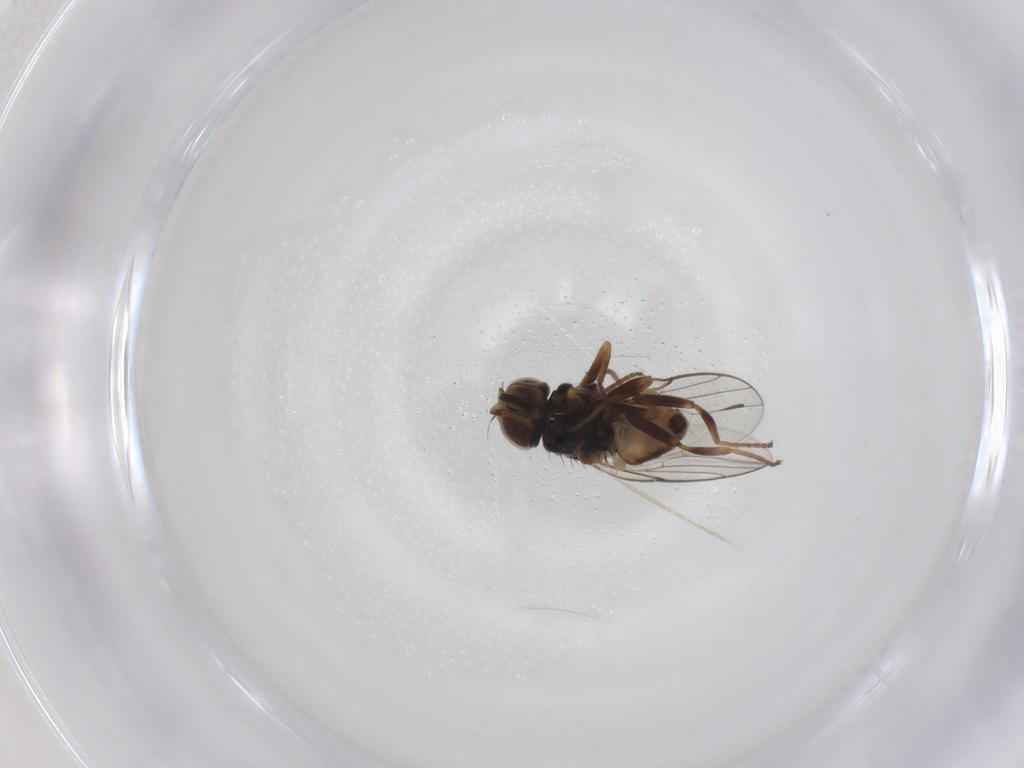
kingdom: Animalia
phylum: Arthropoda
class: Insecta
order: Diptera
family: Chloropidae
